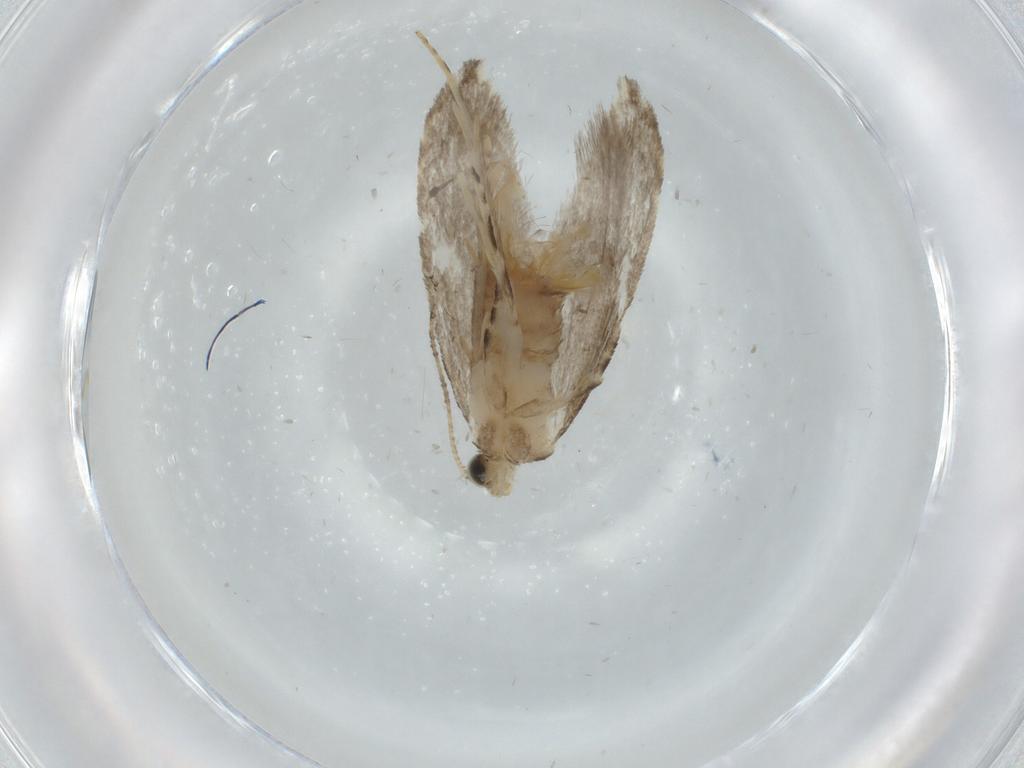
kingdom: Animalia
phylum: Arthropoda
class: Insecta
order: Lepidoptera
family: Tineidae
